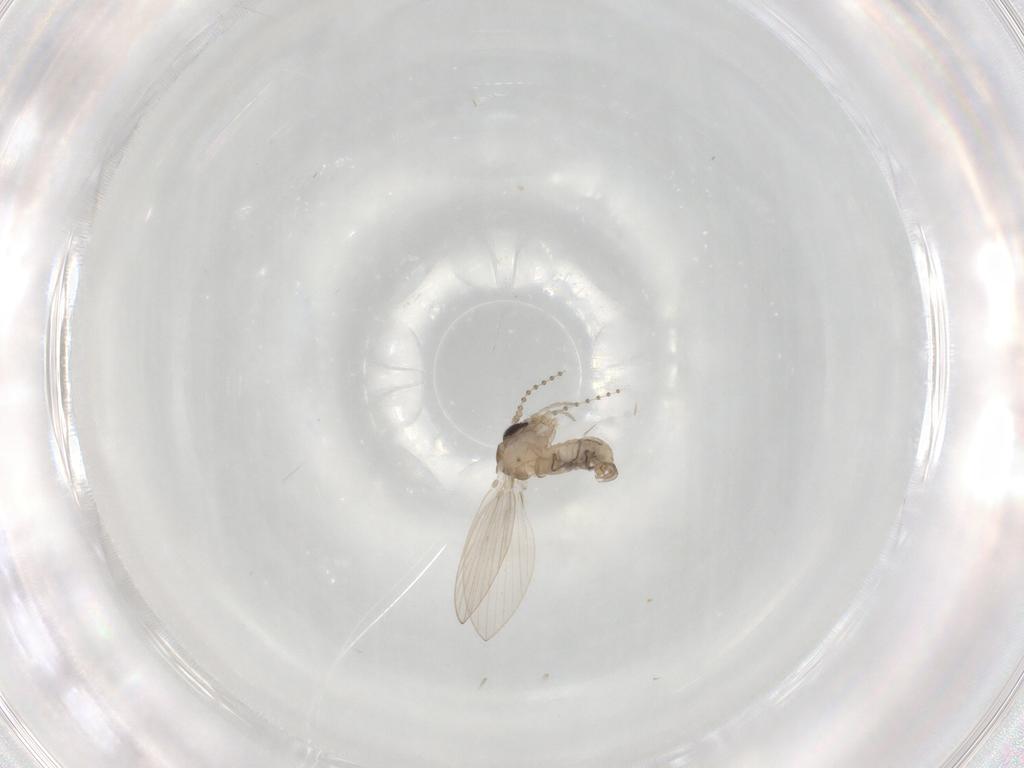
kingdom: Animalia
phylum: Arthropoda
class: Insecta
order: Diptera
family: Psychodidae
